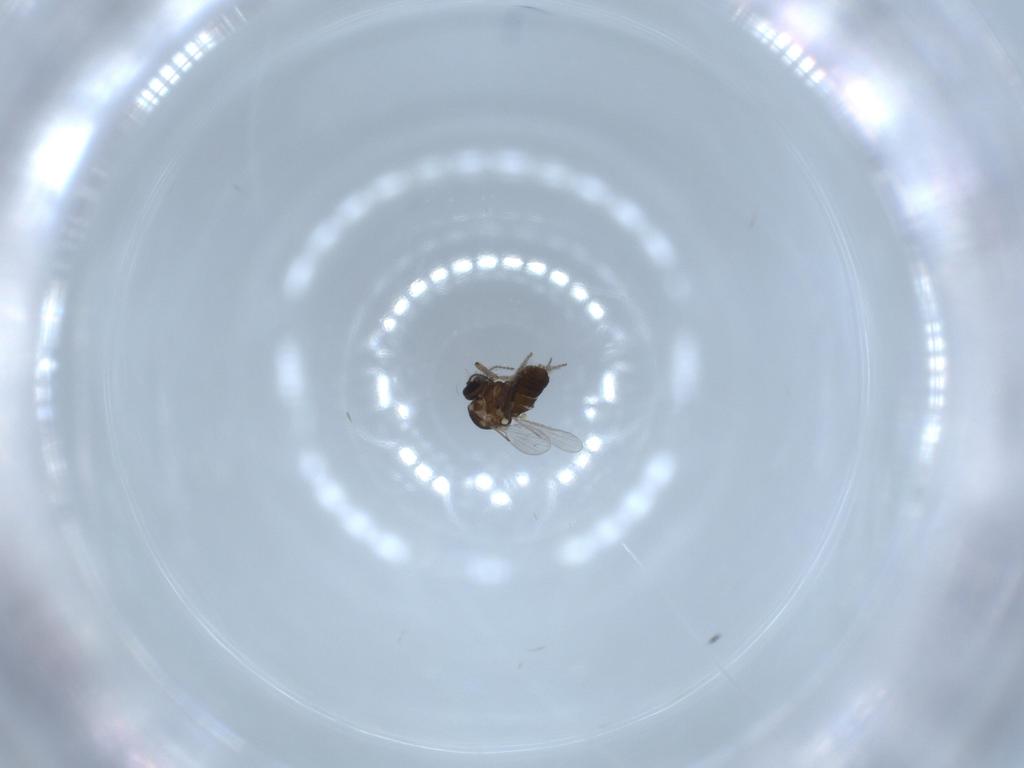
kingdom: Animalia
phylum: Arthropoda
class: Insecta
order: Diptera
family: Ceratopogonidae
